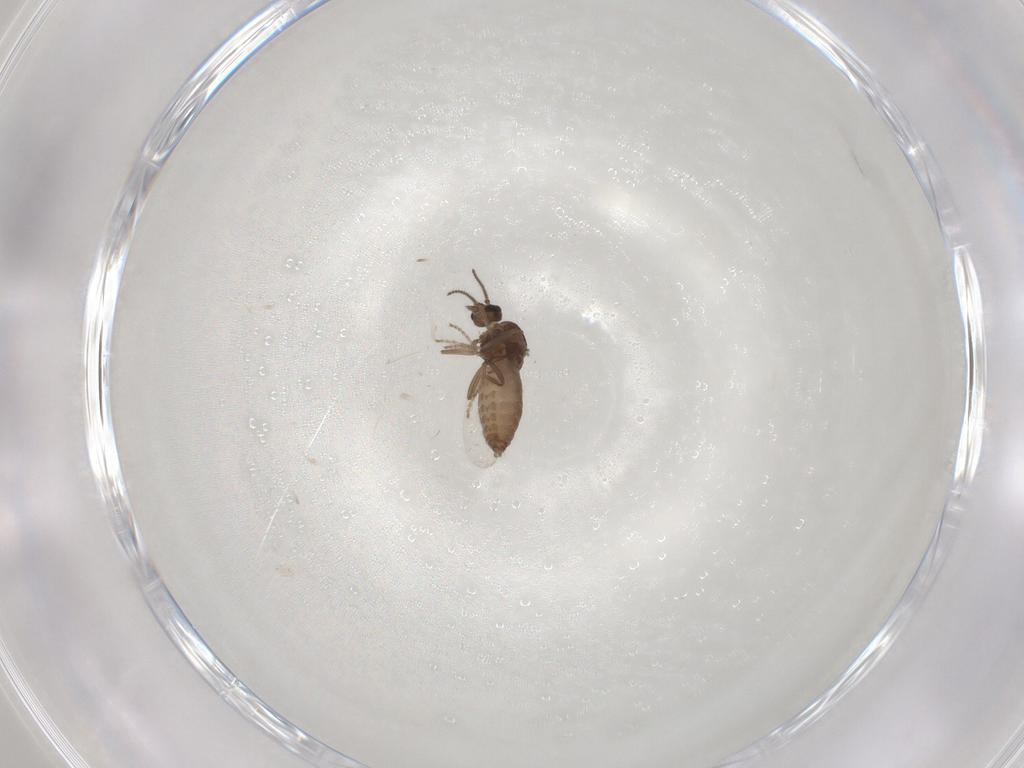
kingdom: Animalia
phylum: Arthropoda
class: Insecta
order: Diptera
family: Ceratopogonidae
